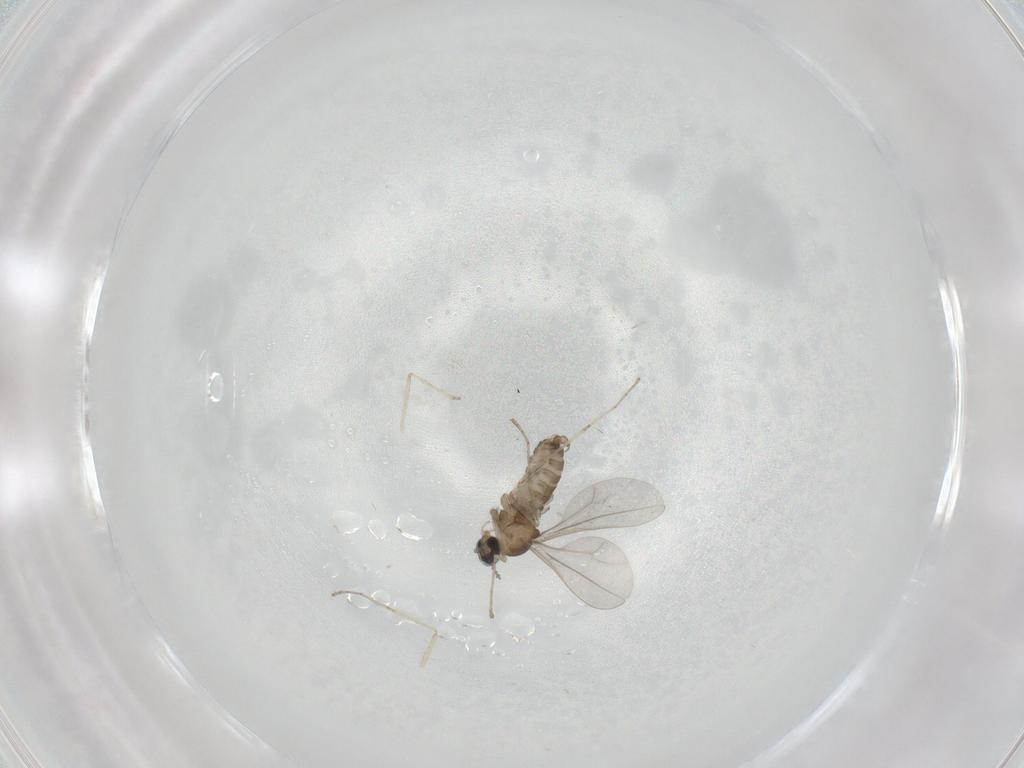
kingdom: Animalia
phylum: Arthropoda
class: Insecta
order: Diptera
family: Cecidomyiidae
